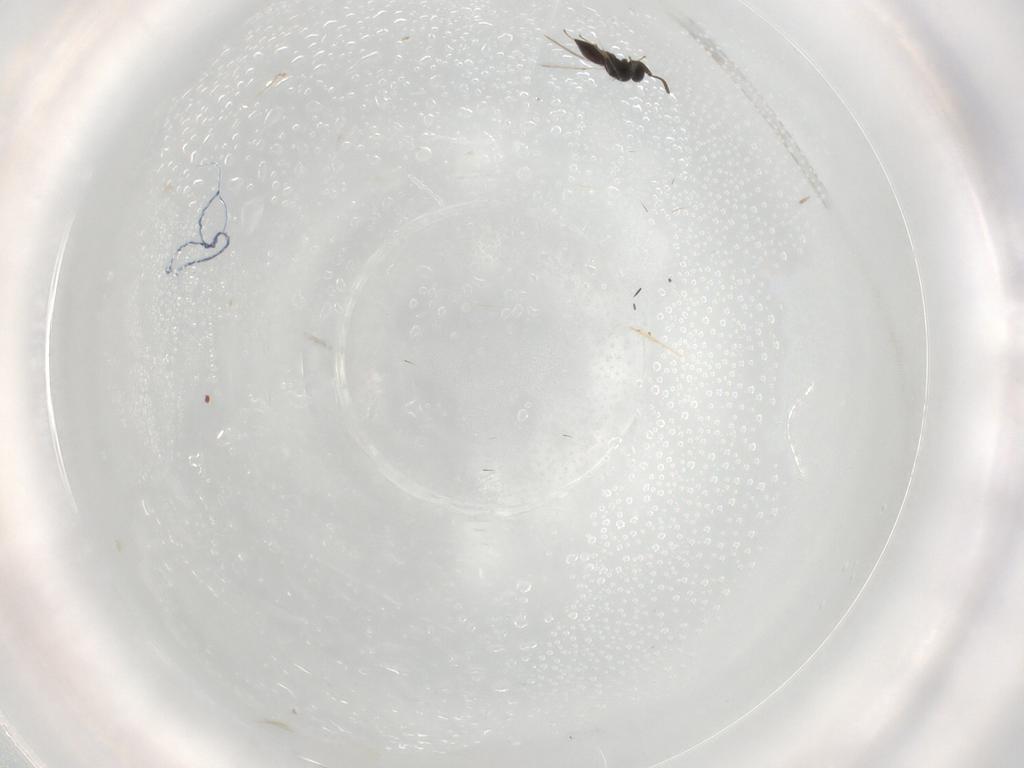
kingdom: Animalia
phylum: Arthropoda
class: Insecta
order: Hymenoptera
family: Scelionidae
